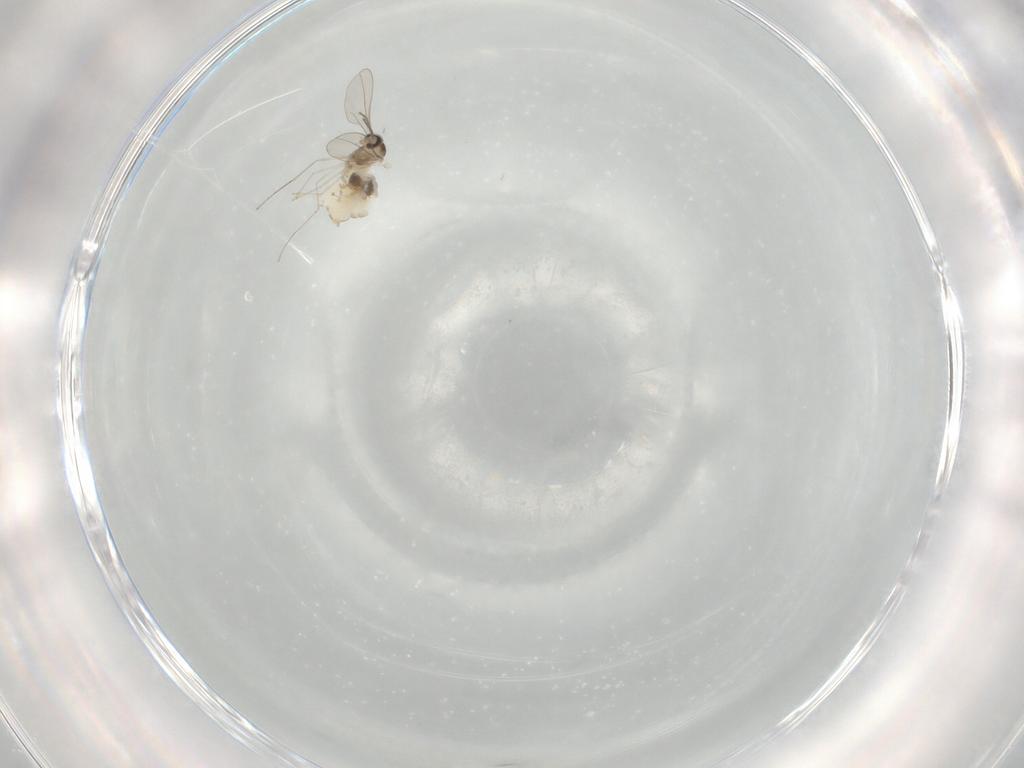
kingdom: Animalia
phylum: Arthropoda
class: Insecta
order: Diptera
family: Cecidomyiidae
